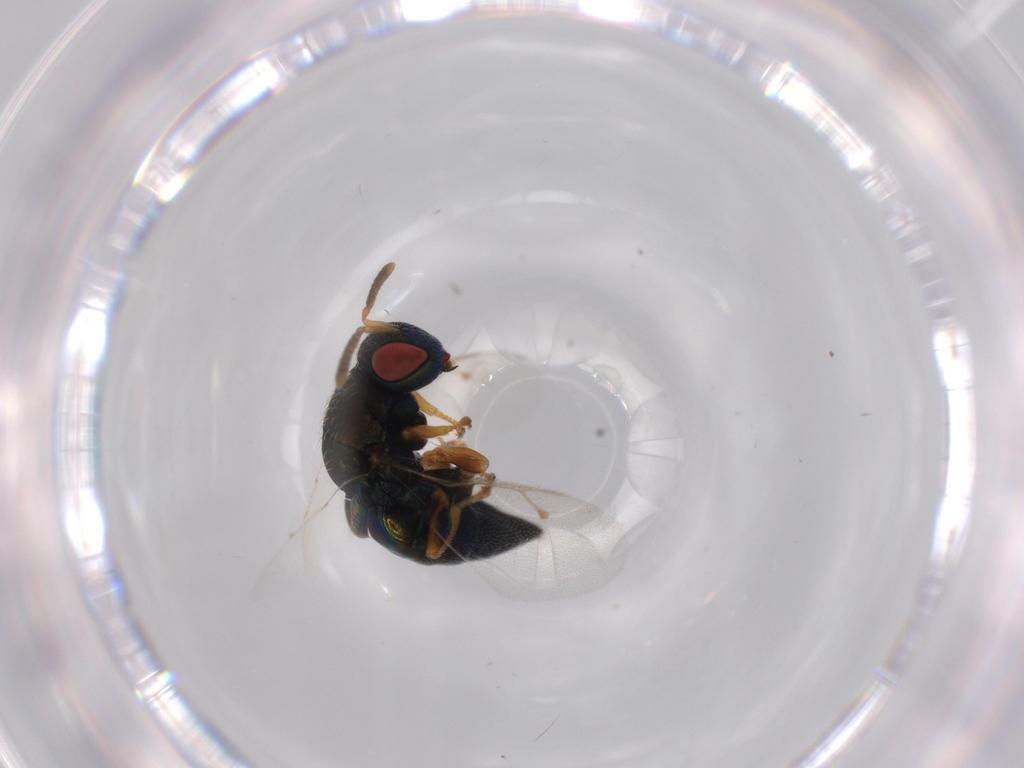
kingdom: Animalia
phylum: Arthropoda
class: Insecta
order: Hymenoptera
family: Pteromalidae
